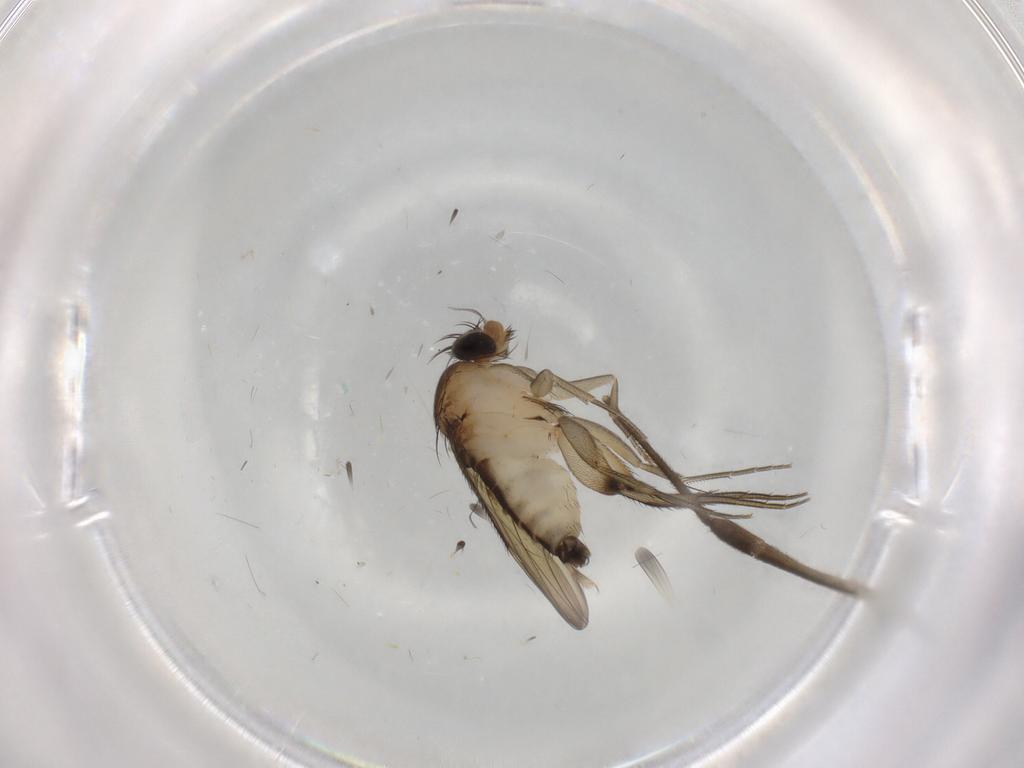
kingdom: Animalia
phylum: Arthropoda
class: Insecta
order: Diptera
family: Phoridae
